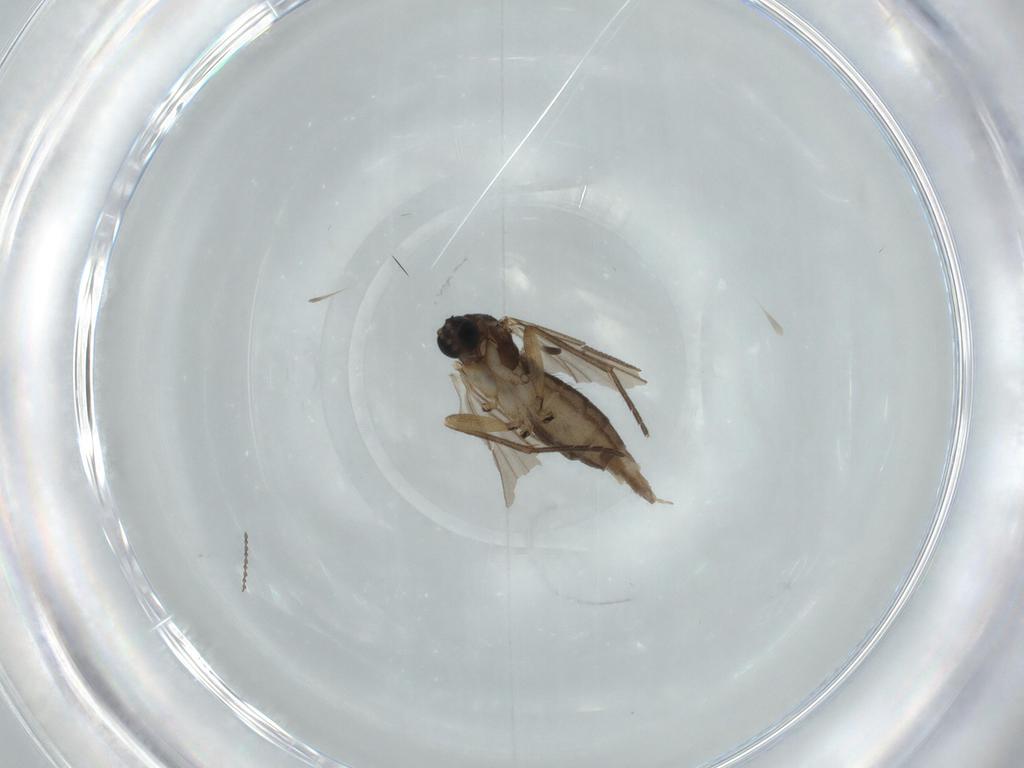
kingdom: Animalia
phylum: Arthropoda
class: Insecta
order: Diptera
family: Sciaridae
